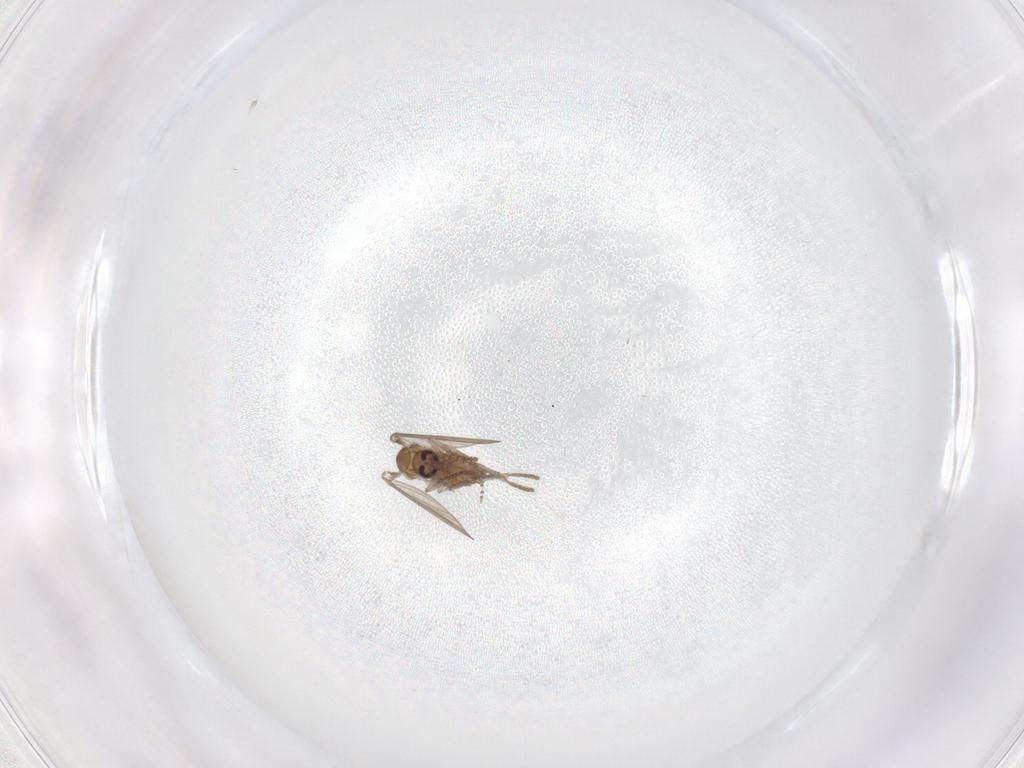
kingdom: Animalia
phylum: Arthropoda
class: Insecta
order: Diptera
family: Psychodidae
